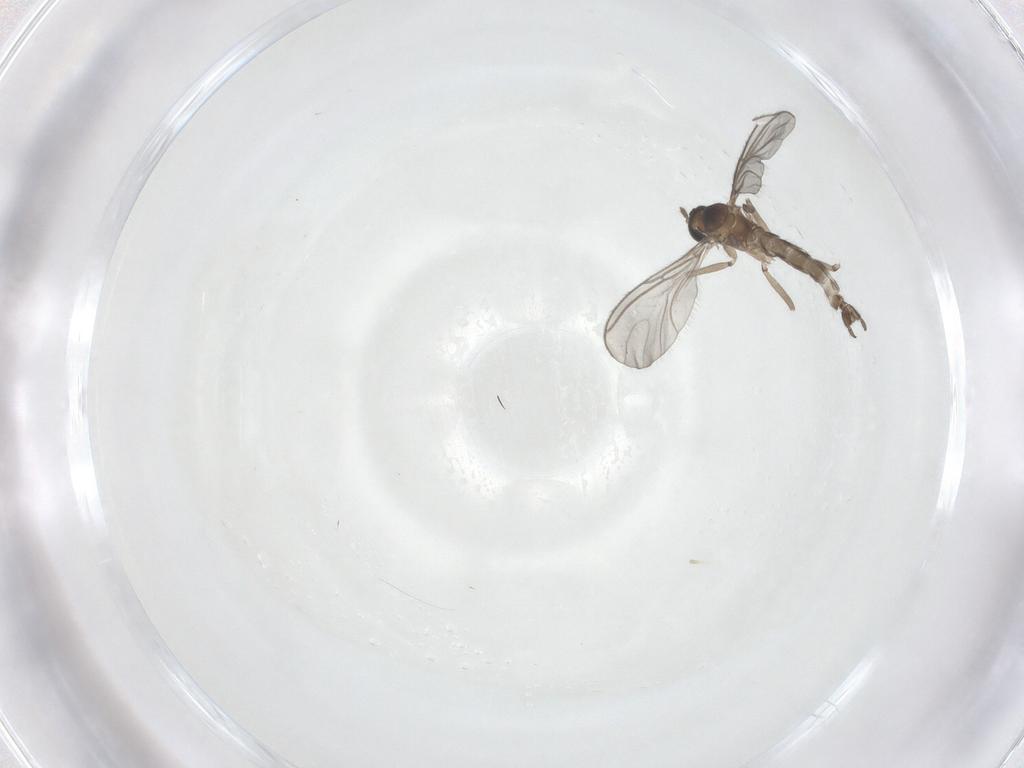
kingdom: Animalia
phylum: Arthropoda
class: Insecta
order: Diptera
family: Sciaridae
